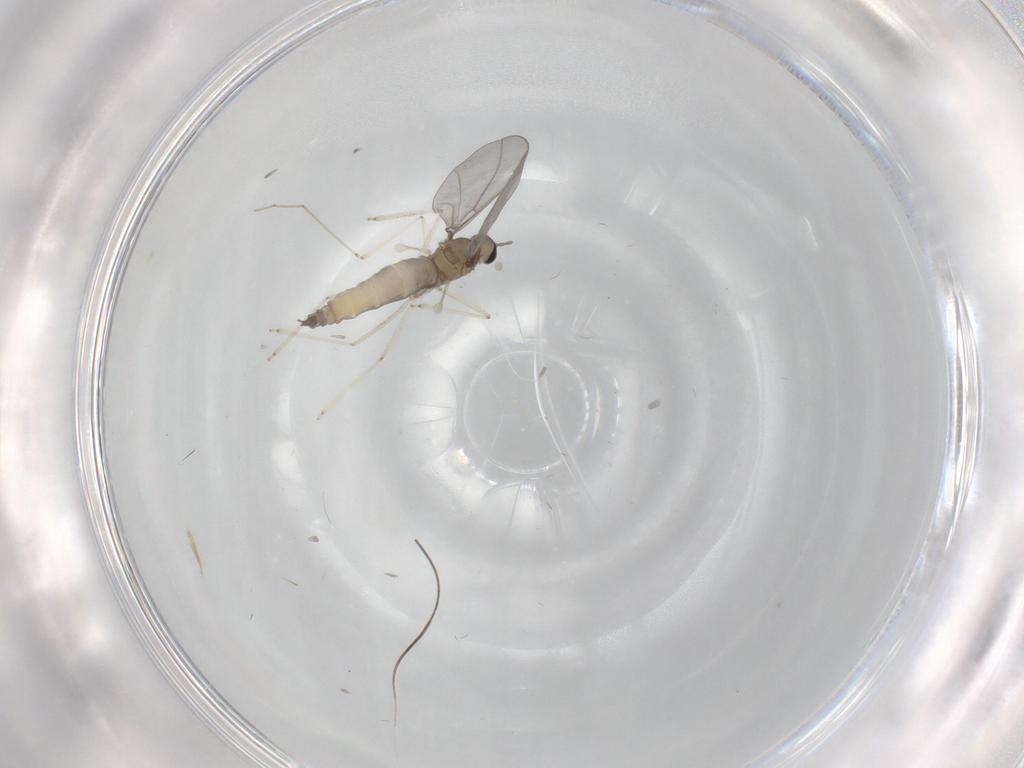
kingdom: Animalia
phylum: Arthropoda
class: Insecta
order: Diptera
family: Cecidomyiidae
